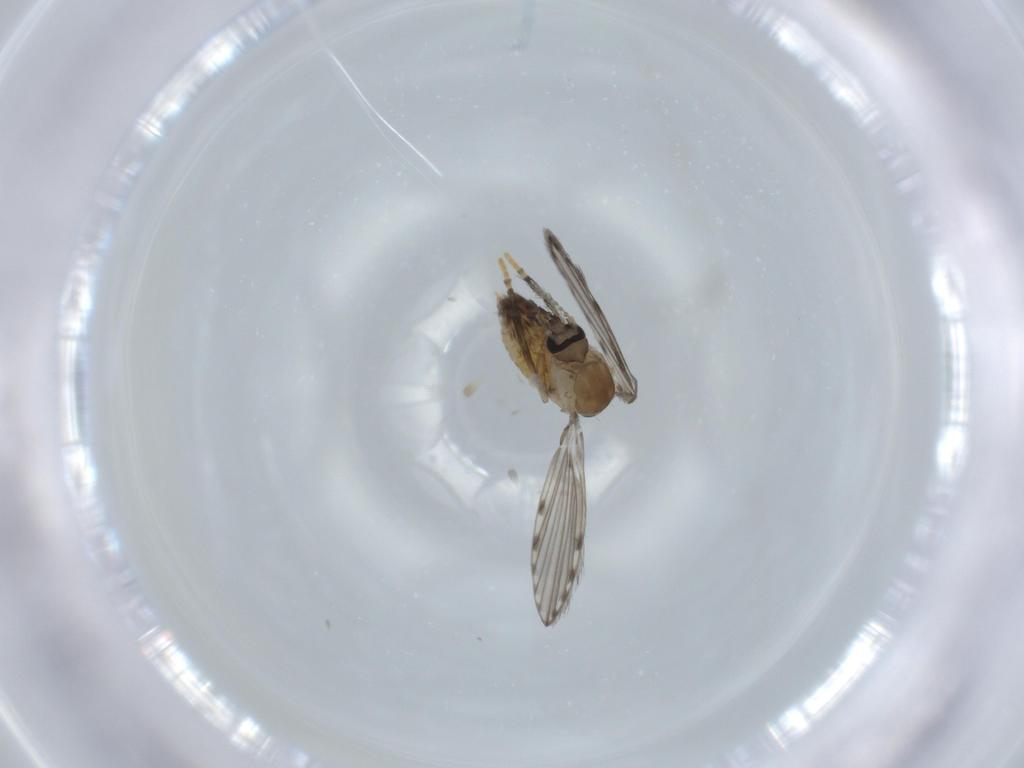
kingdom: Animalia
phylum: Arthropoda
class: Insecta
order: Diptera
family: Psychodidae
